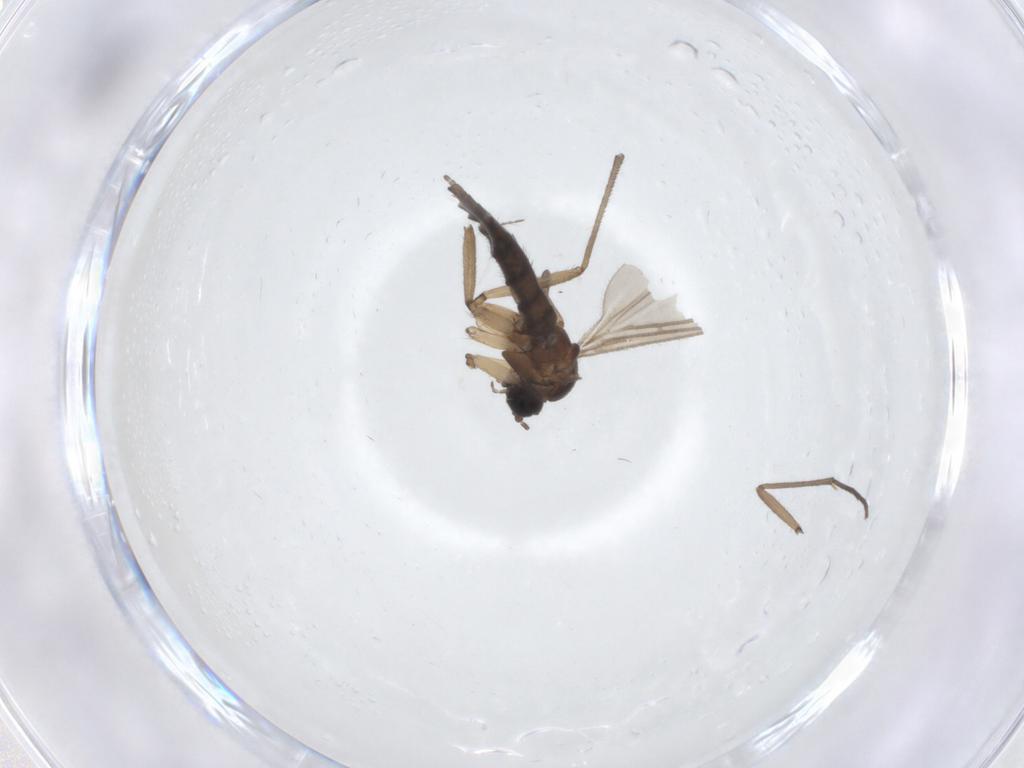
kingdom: Animalia
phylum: Arthropoda
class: Insecta
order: Diptera
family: Sciaridae
